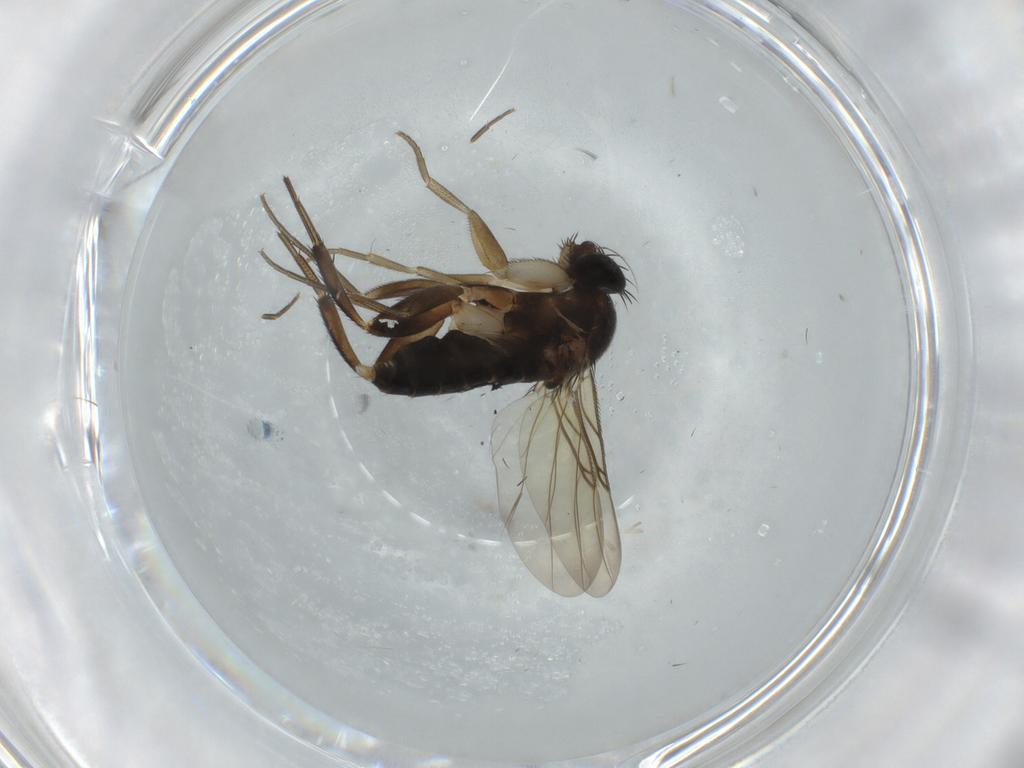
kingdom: Animalia
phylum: Arthropoda
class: Insecta
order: Diptera
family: Phoridae
